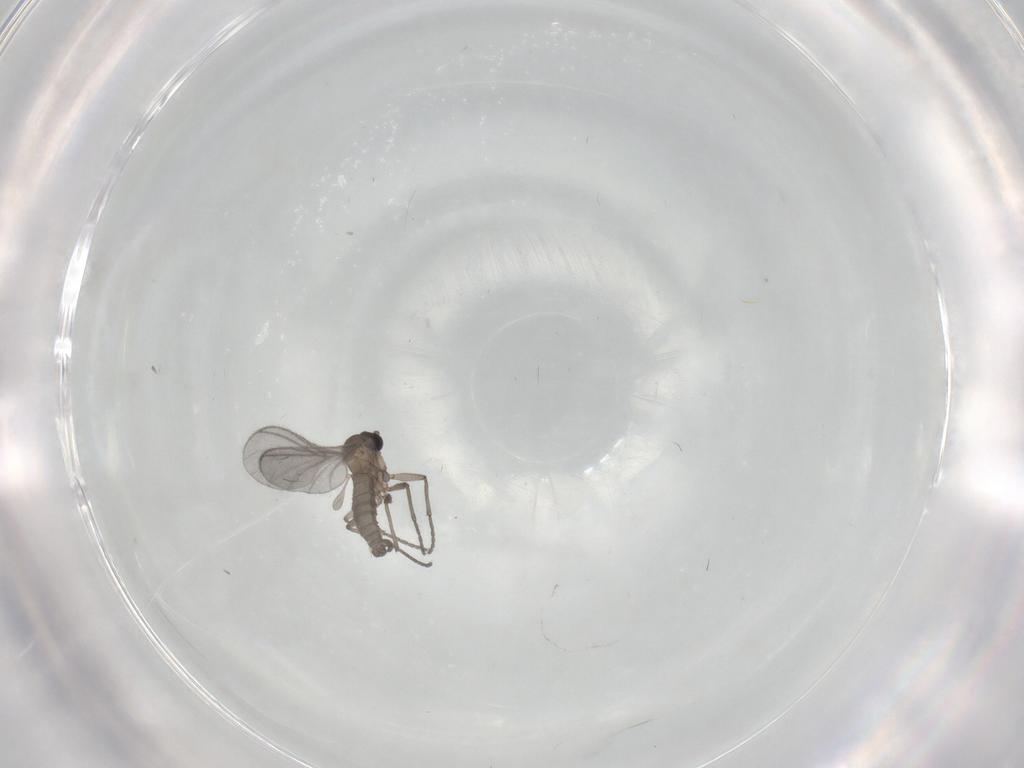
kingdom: Animalia
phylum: Arthropoda
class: Insecta
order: Diptera
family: Sciaridae
